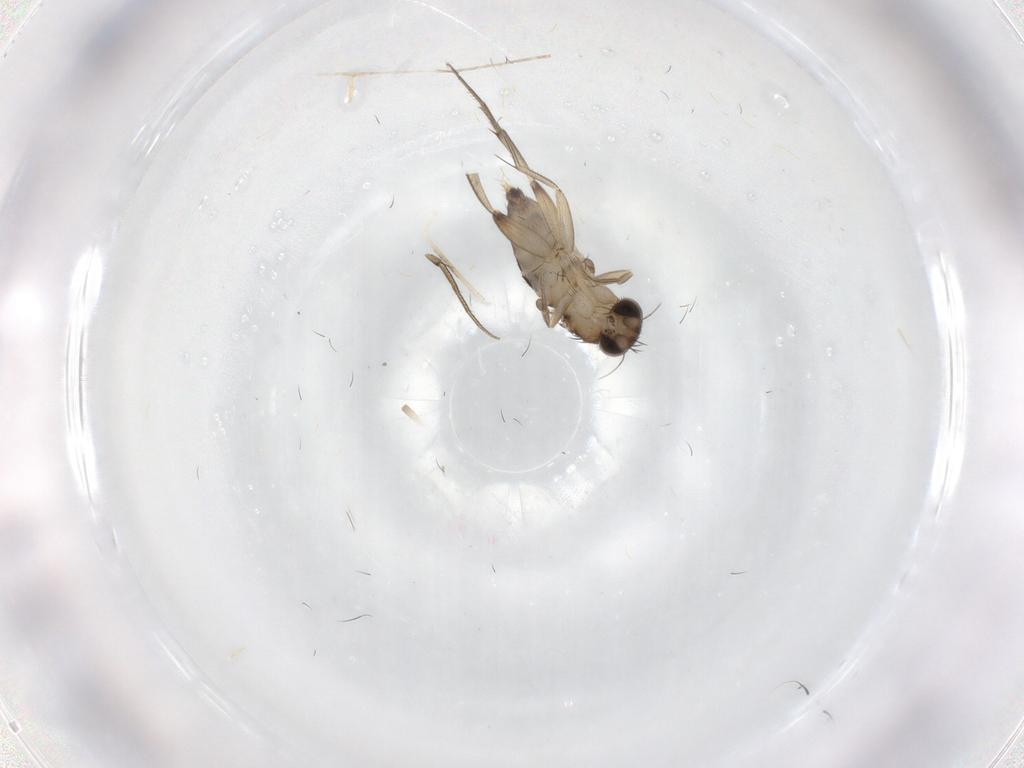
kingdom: Animalia
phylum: Arthropoda
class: Insecta
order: Diptera
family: Phoridae
